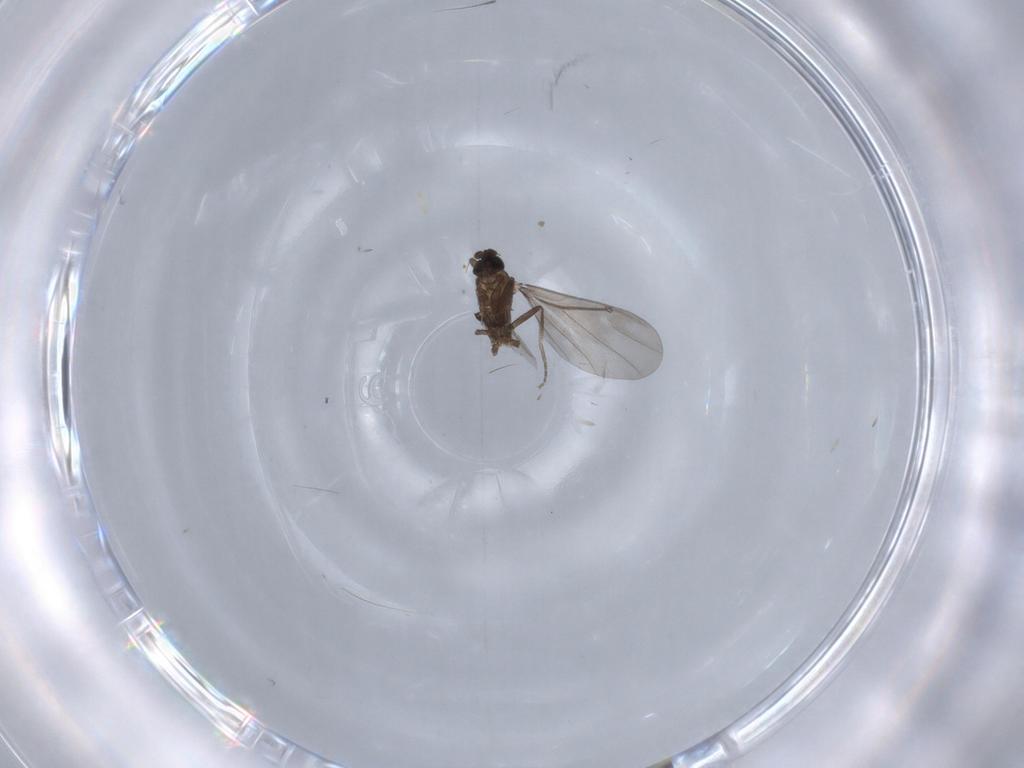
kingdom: Animalia
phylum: Arthropoda
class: Insecta
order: Diptera
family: Phoridae
